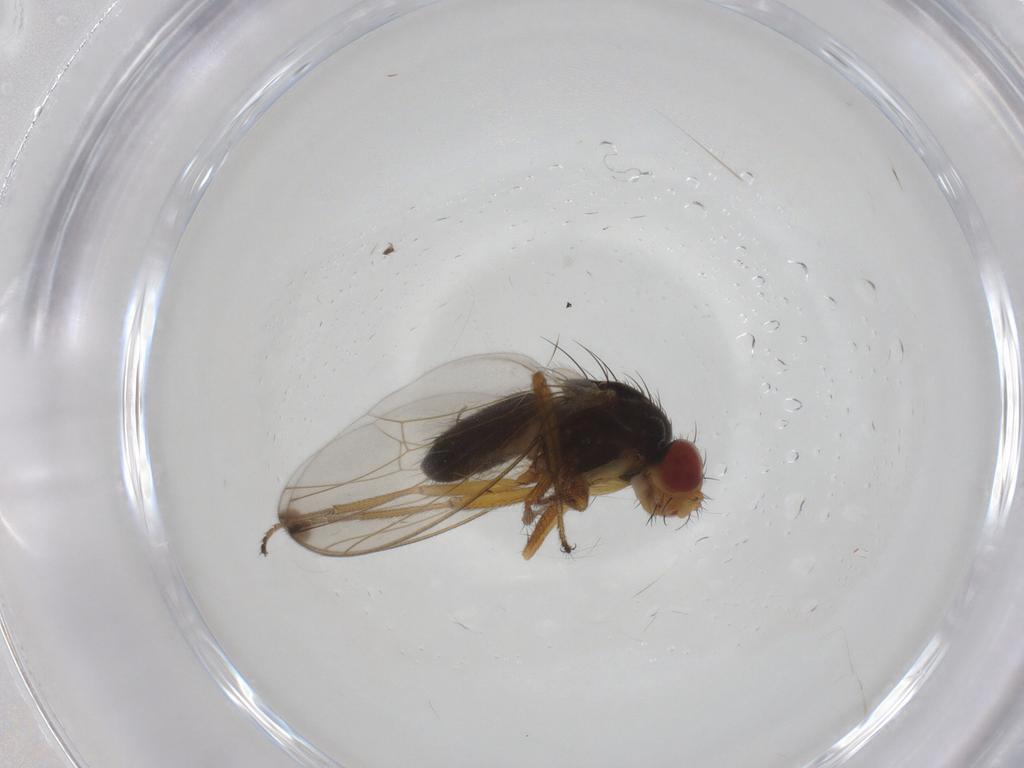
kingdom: Animalia
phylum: Arthropoda
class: Insecta
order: Diptera
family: Drosophilidae
